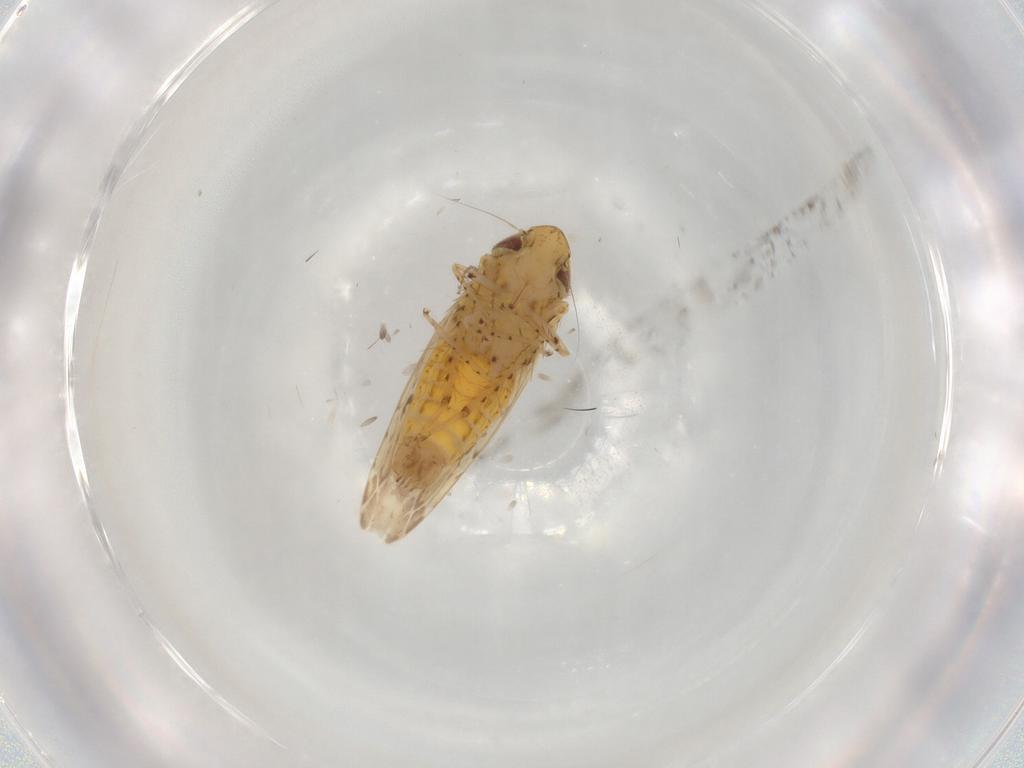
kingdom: Animalia
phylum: Arthropoda
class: Insecta
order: Hemiptera
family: Cicadellidae
